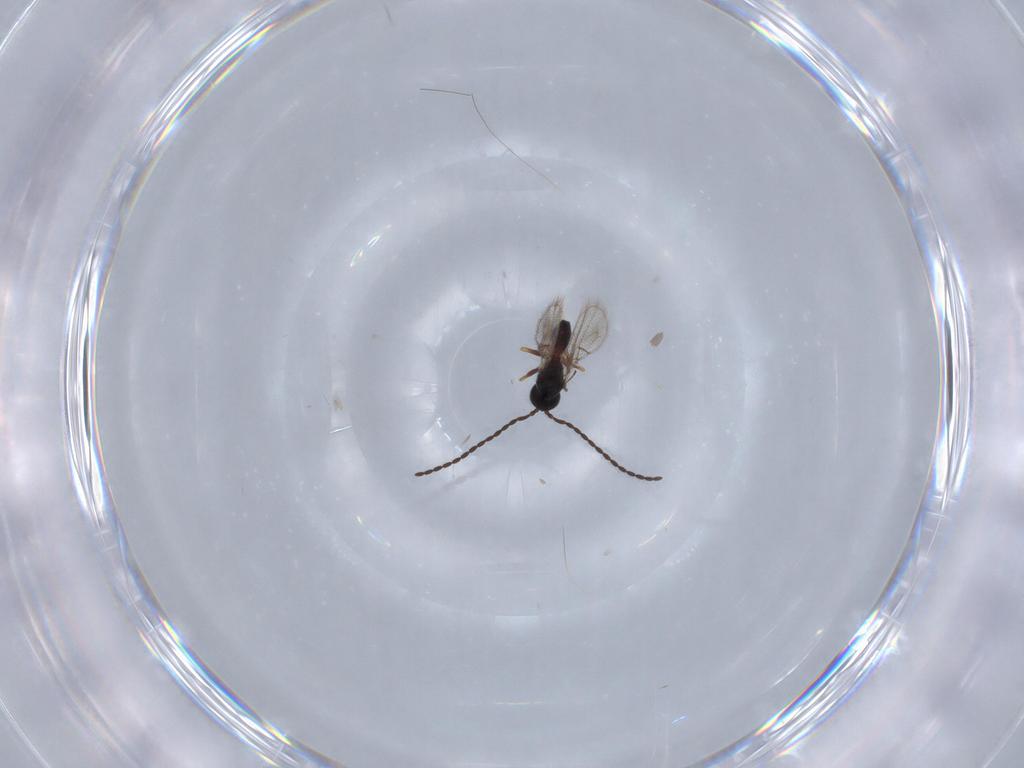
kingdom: Animalia
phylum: Arthropoda
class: Insecta
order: Hymenoptera
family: Figitidae
